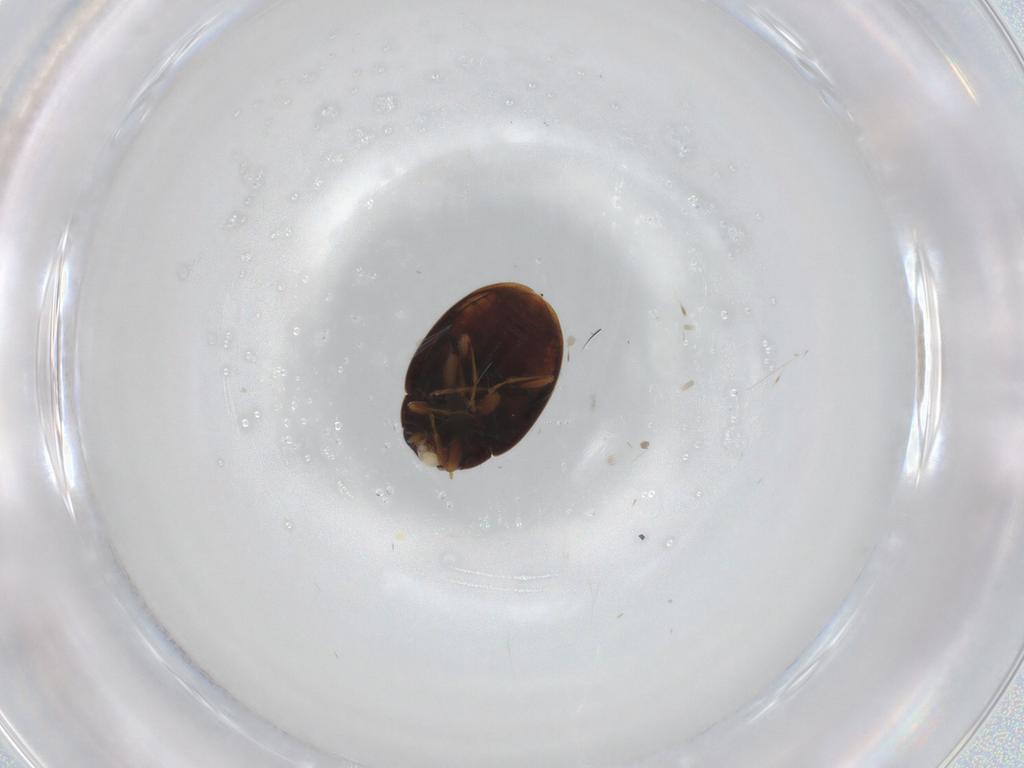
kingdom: Animalia
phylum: Arthropoda
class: Insecta
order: Coleoptera
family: Coccinellidae
